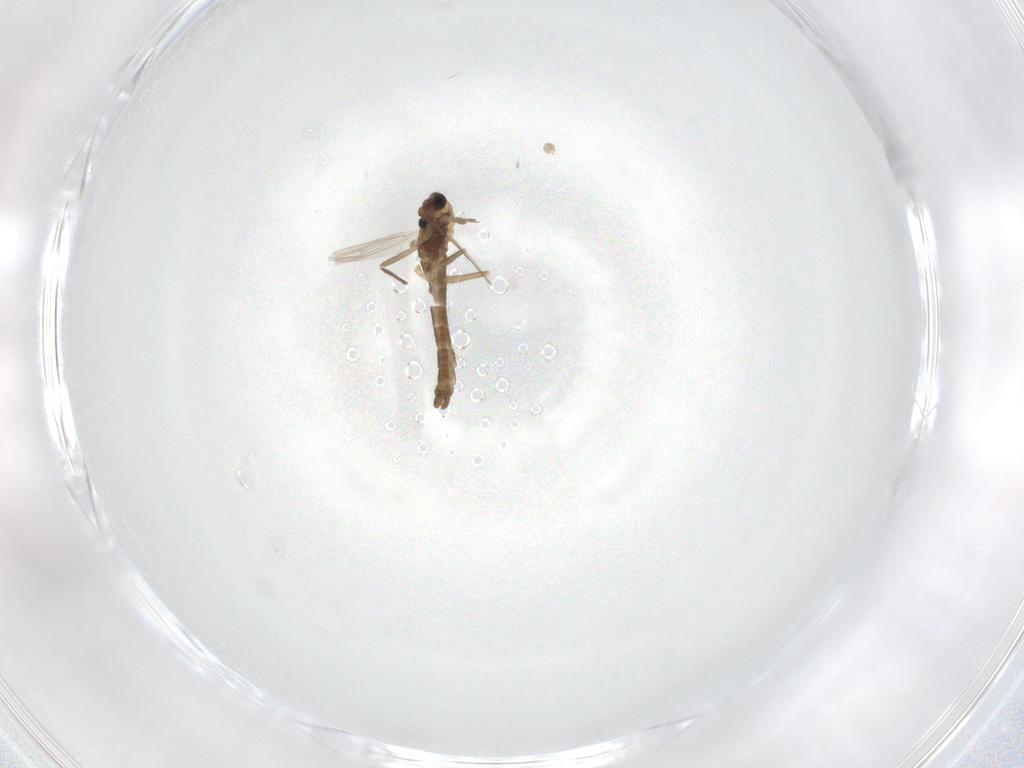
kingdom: Animalia
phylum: Arthropoda
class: Insecta
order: Diptera
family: Chironomidae
